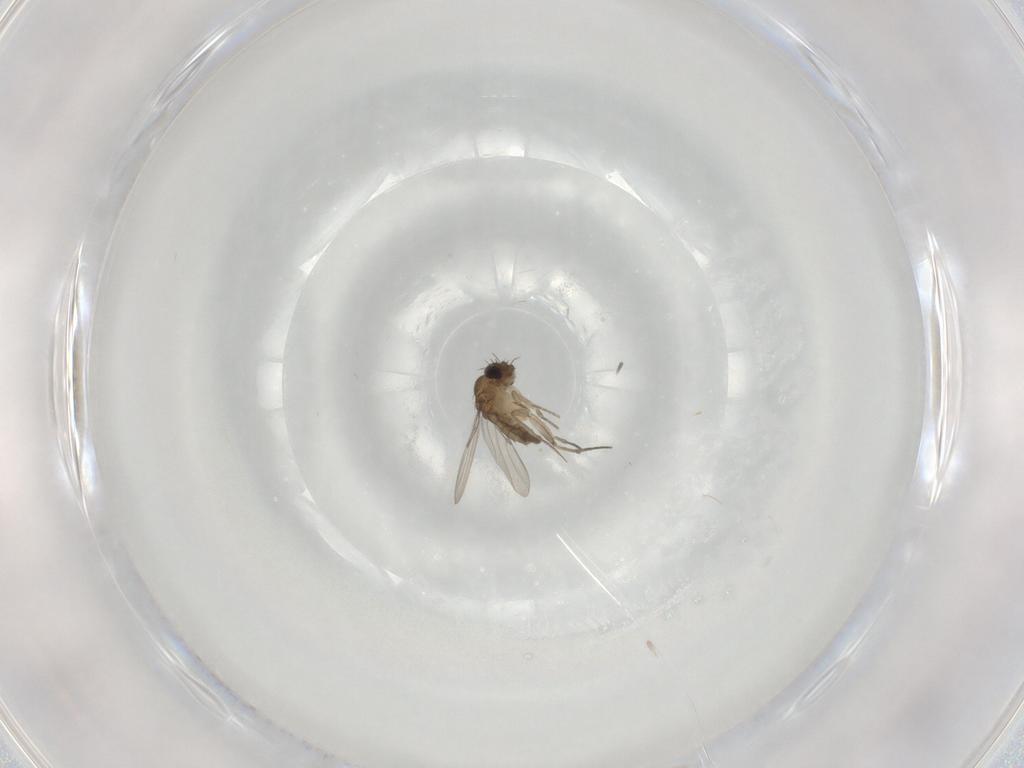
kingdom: Animalia
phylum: Arthropoda
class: Insecta
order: Diptera
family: Phoridae
